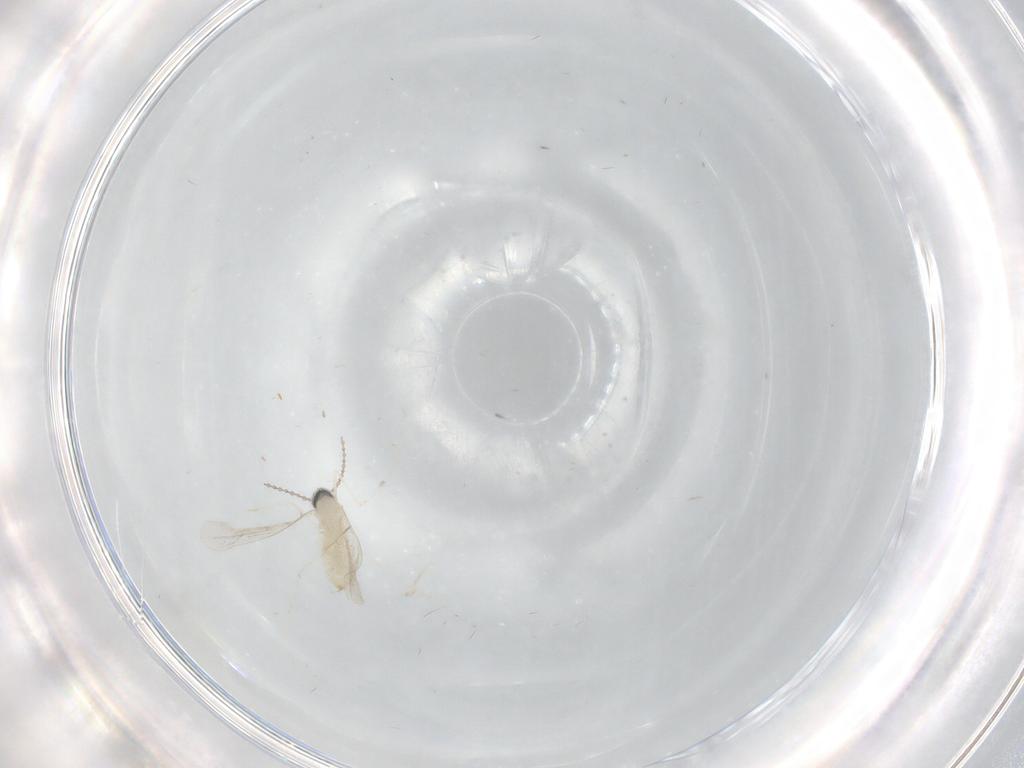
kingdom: Animalia
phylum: Arthropoda
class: Insecta
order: Diptera
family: Cecidomyiidae
